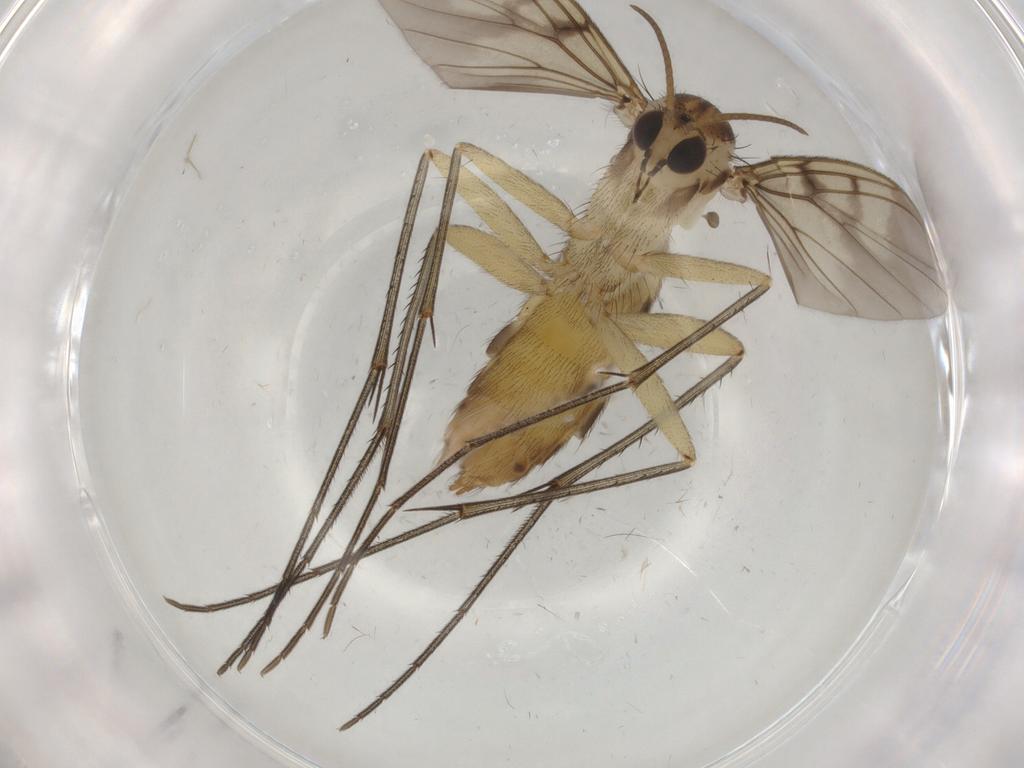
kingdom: Animalia
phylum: Arthropoda
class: Insecta
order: Diptera
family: Mycetophilidae
